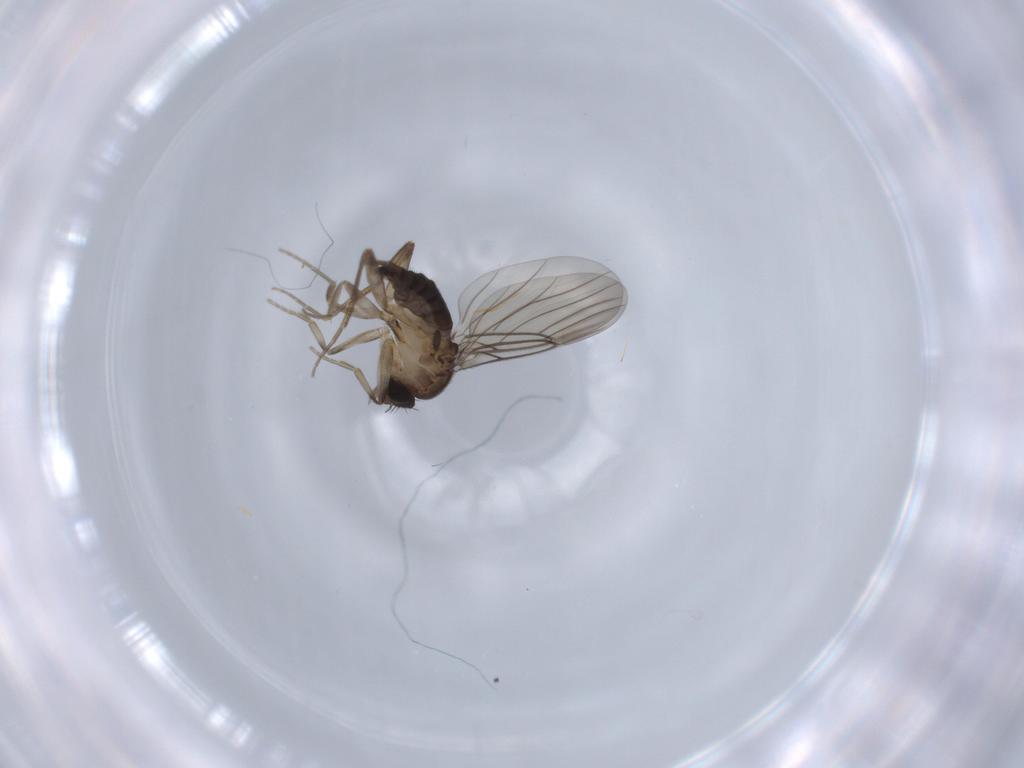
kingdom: Animalia
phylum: Arthropoda
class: Insecta
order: Diptera
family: Phoridae
